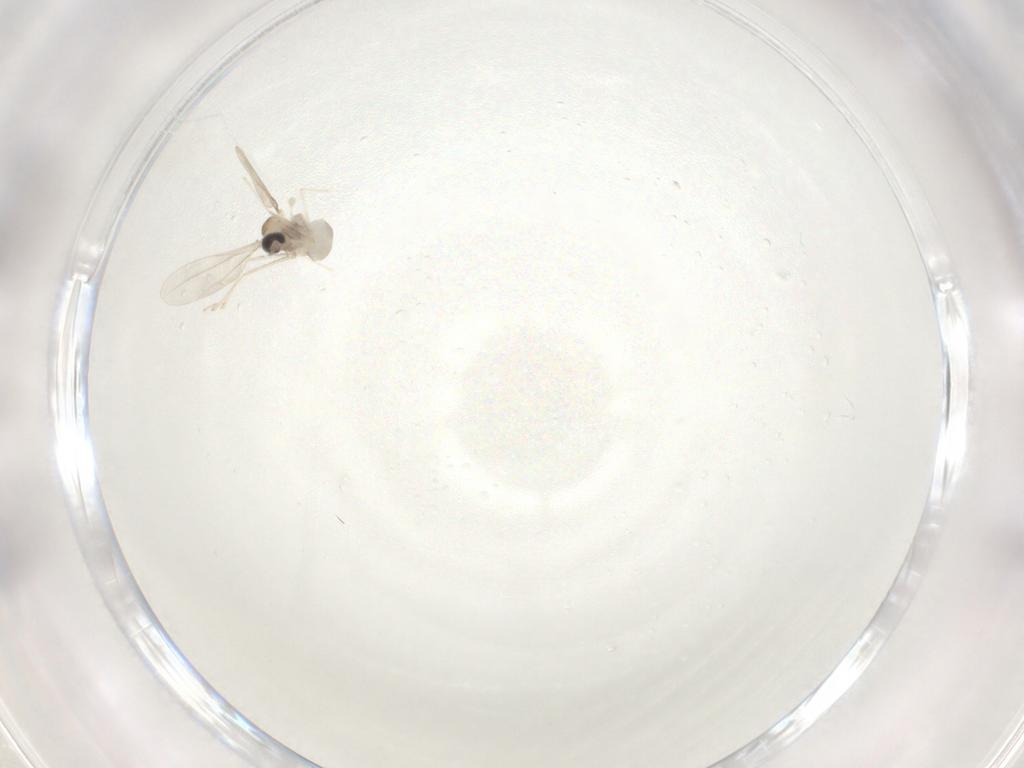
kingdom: Animalia
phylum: Arthropoda
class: Insecta
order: Diptera
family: Cecidomyiidae
